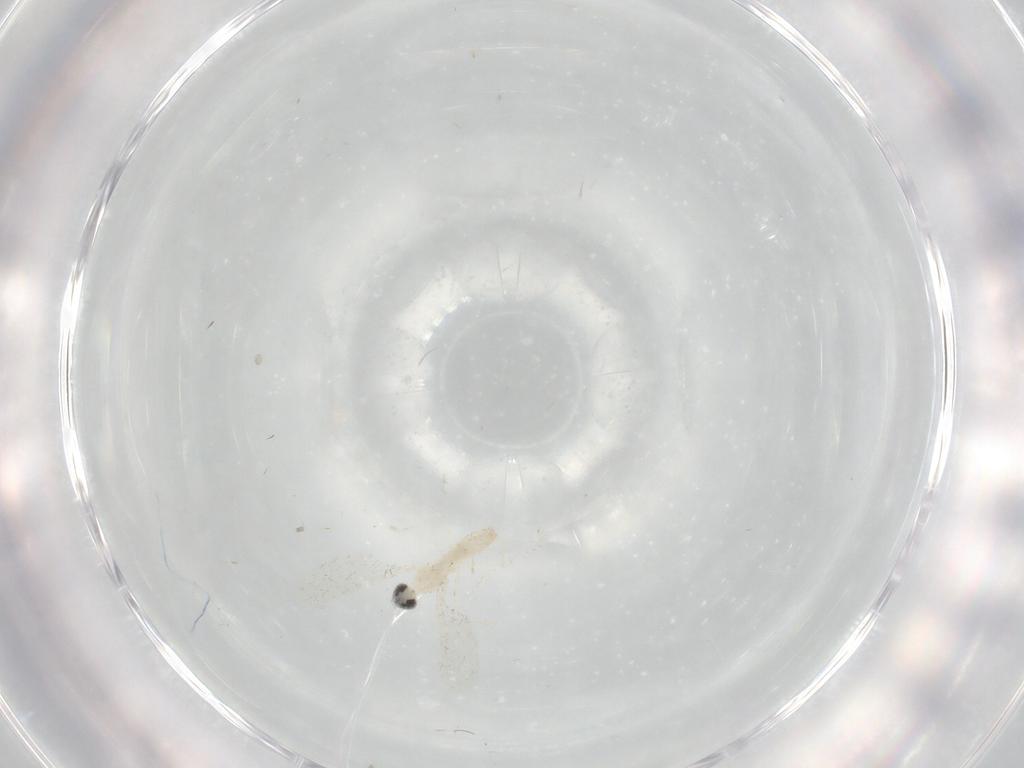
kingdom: Animalia
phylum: Arthropoda
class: Insecta
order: Diptera
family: Cecidomyiidae
